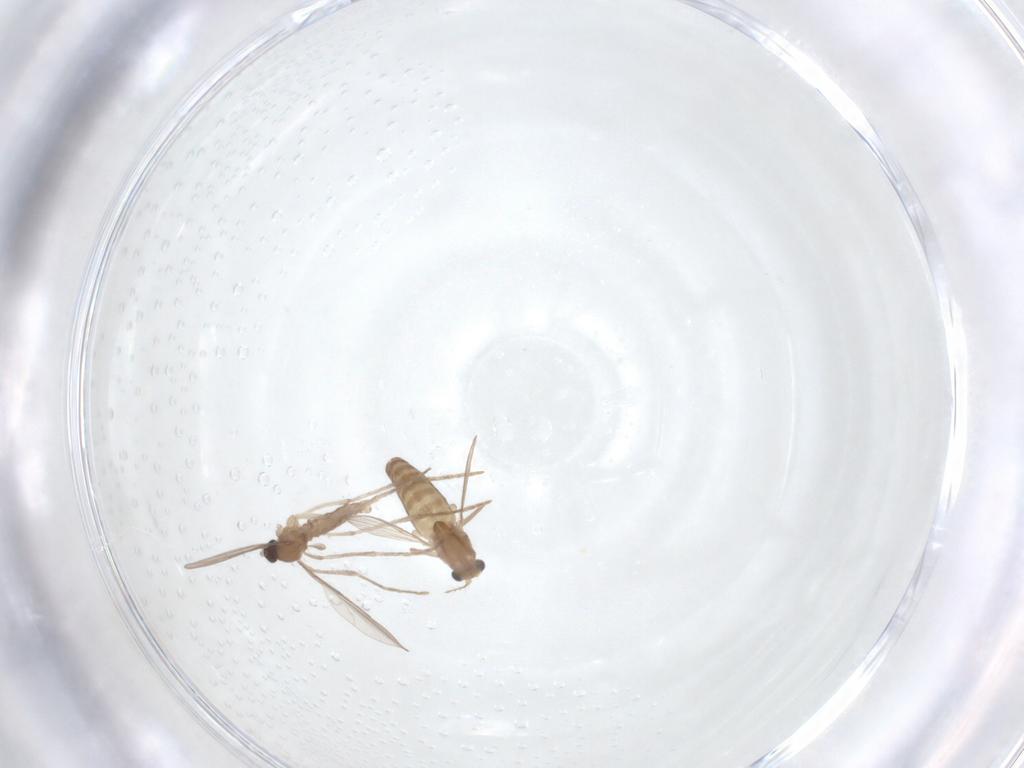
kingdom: Animalia
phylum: Arthropoda
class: Insecta
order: Diptera
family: Chironomidae
